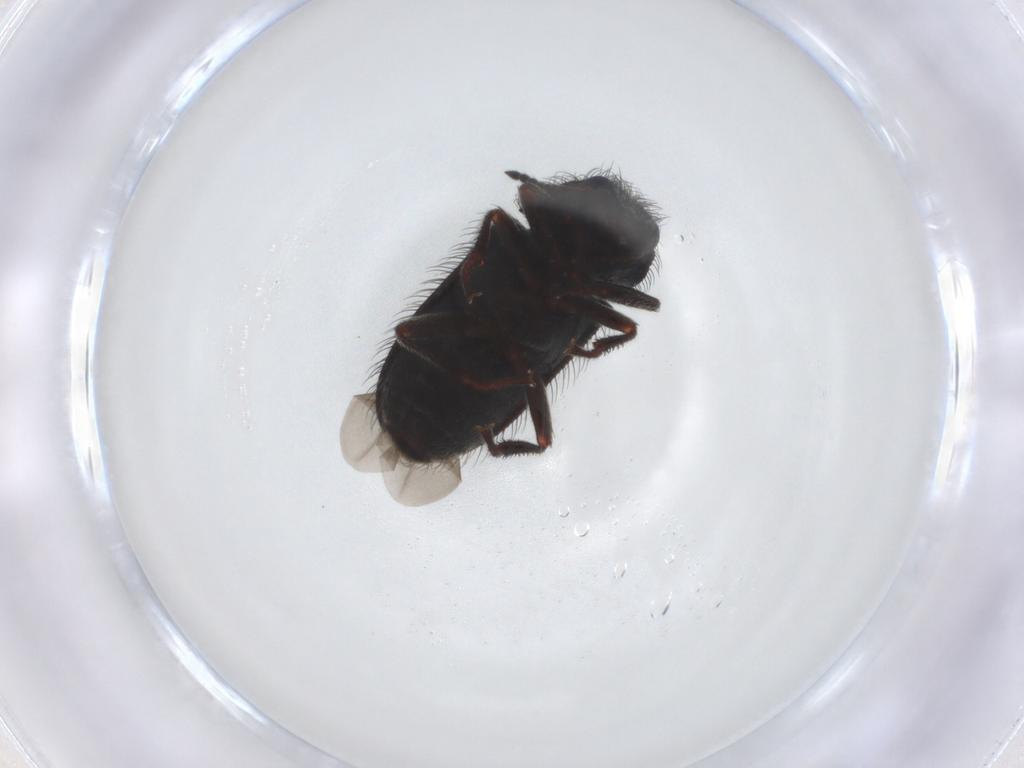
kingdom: Animalia
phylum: Arthropoda
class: Insecta
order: Coleoptera
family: Melyridae
